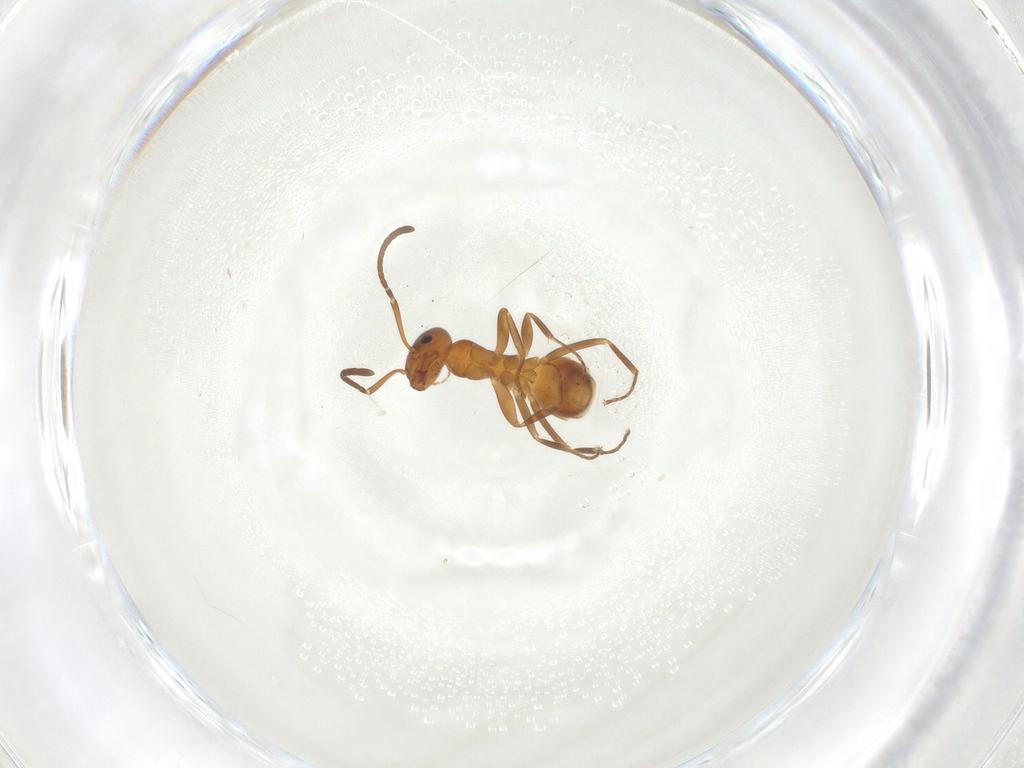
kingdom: Animalia
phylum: Arthropoda
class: Insecta
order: Hymenoptera
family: Formicidae
